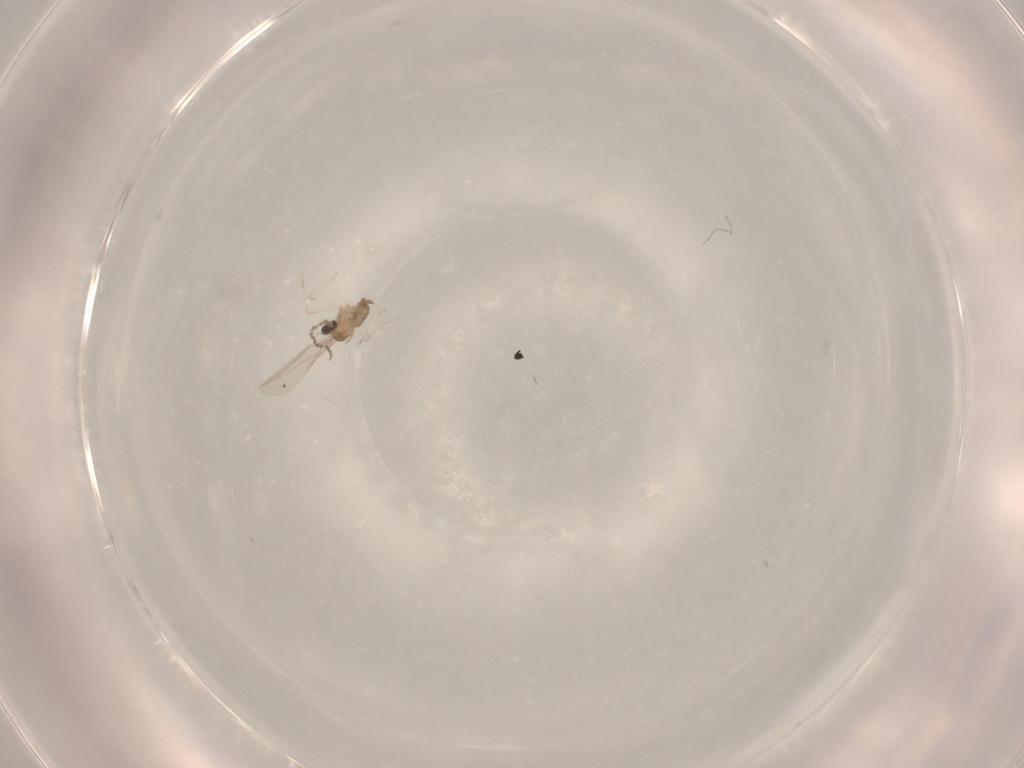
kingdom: Animalia
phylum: Arthropoda
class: Insecta
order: Diptera
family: Cecidomyiidae
